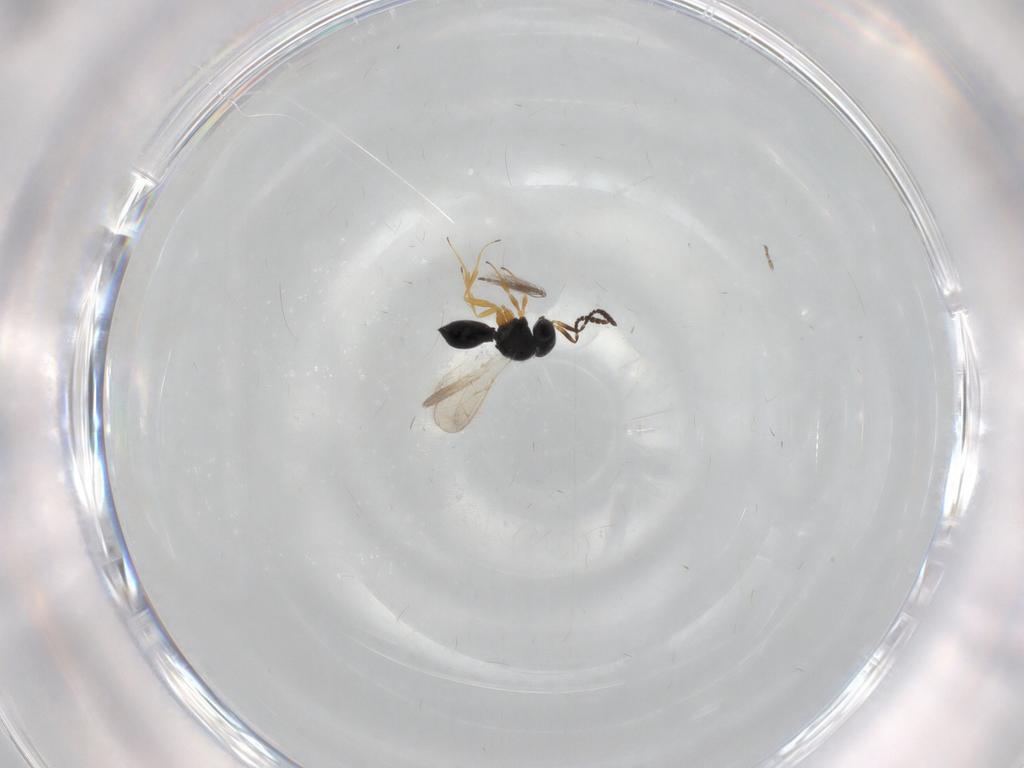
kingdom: Animalia
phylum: Arthropoda
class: Insecta
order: Hymenoptera
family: Scelionidae
